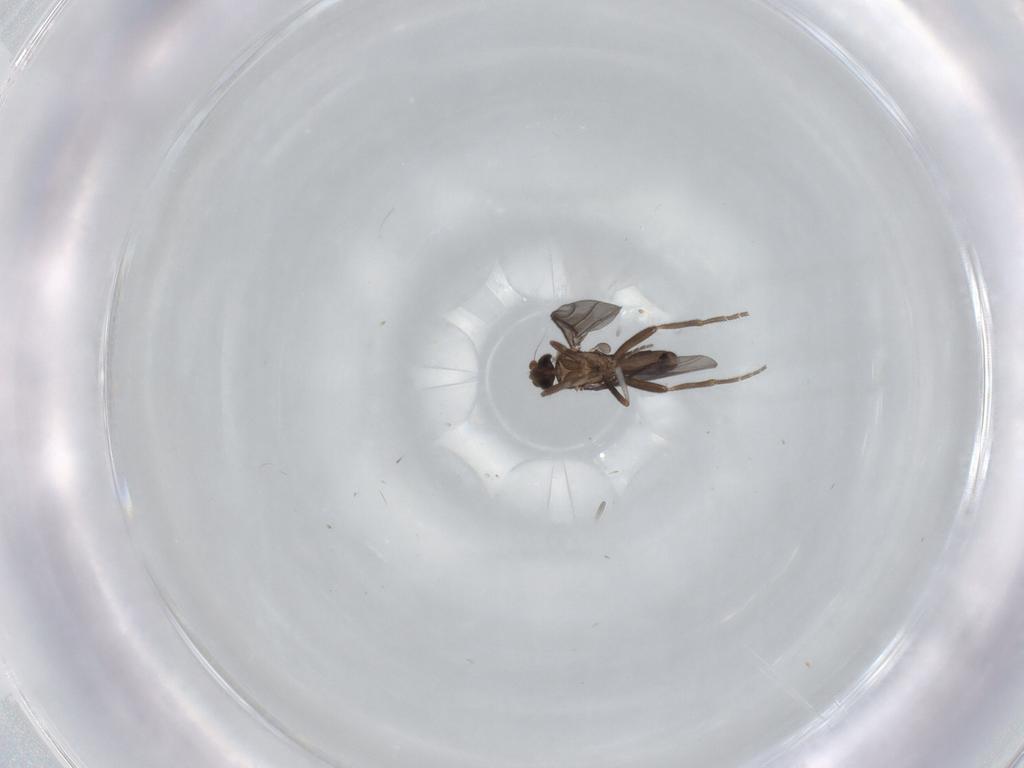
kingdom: Animalia
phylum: Arthropoda
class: Insecta
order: Diptera
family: Phoridae
